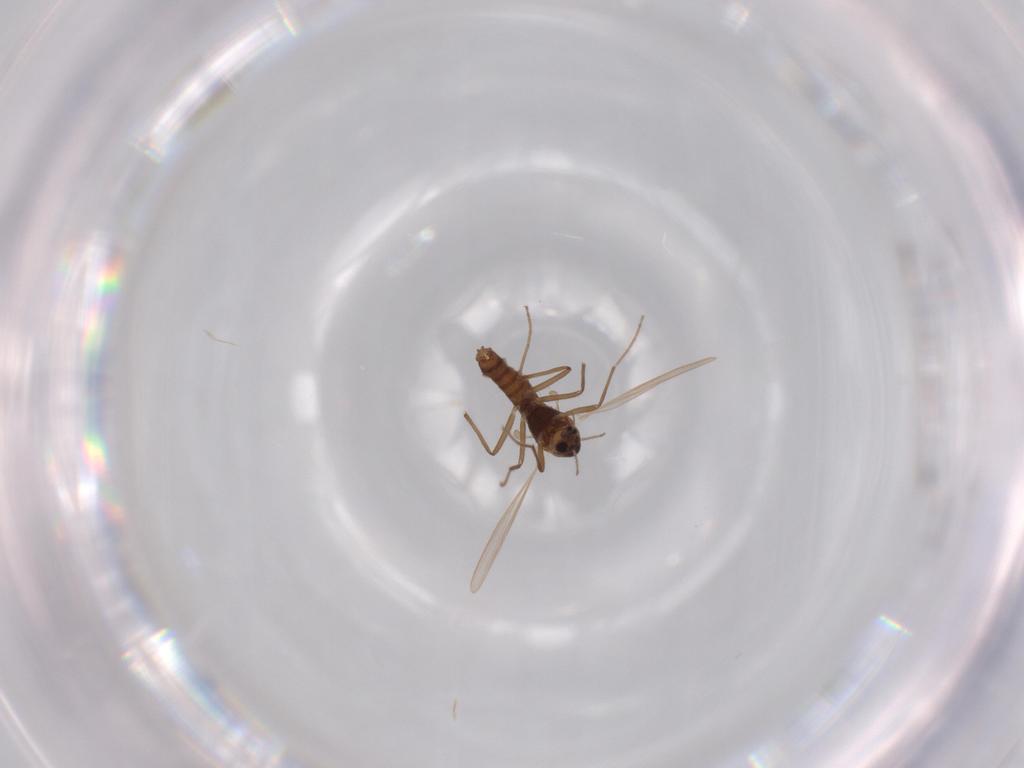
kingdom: Animalia
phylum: Arthropoda
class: Insecta
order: Diptera
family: Chironomidae
